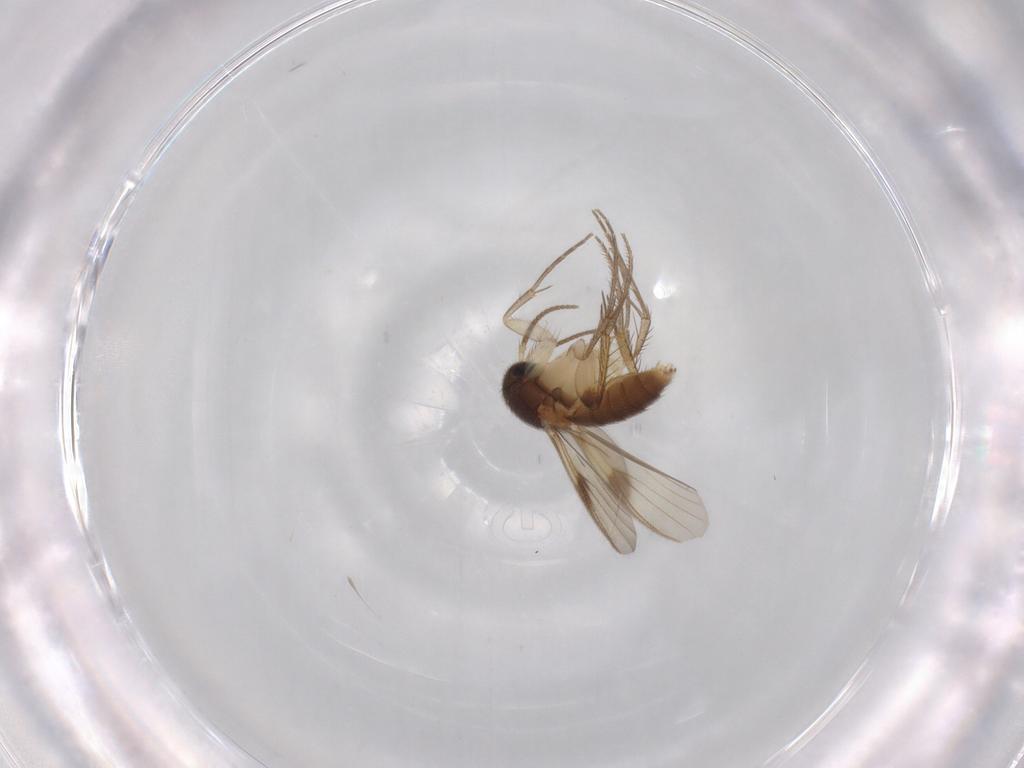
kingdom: Animalia
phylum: Arthropoda
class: Insecta
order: Diptera
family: Mycetophilidae
